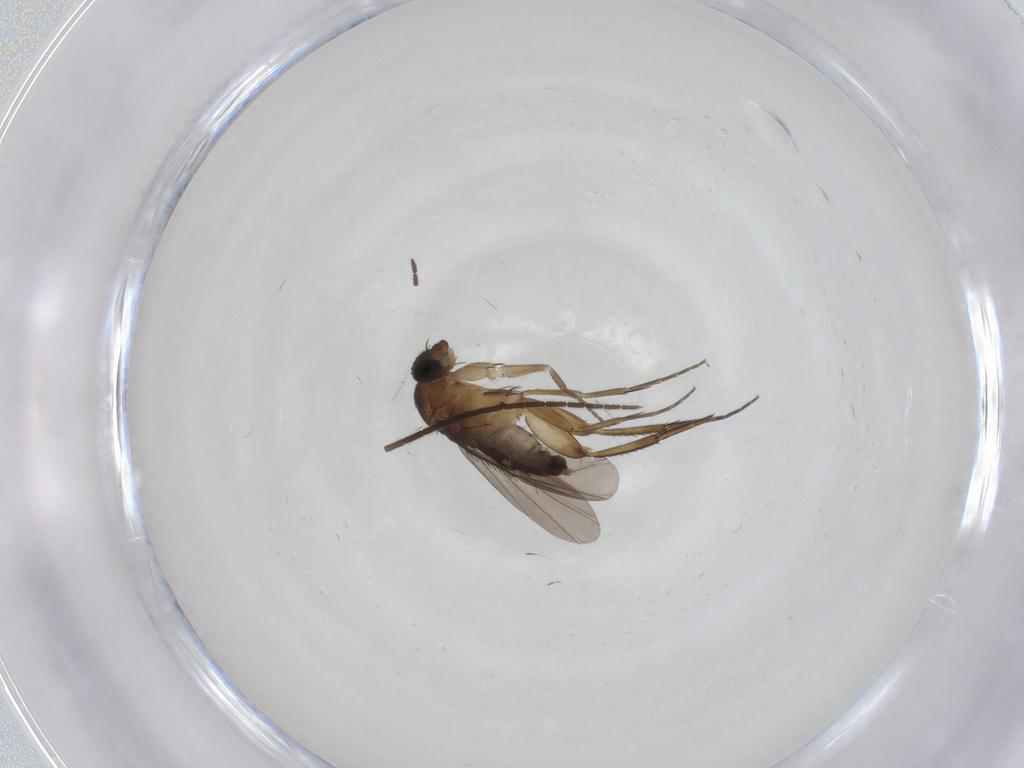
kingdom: Animalia
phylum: Arthropoda
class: Insecta
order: Diptera
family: Phoridae
